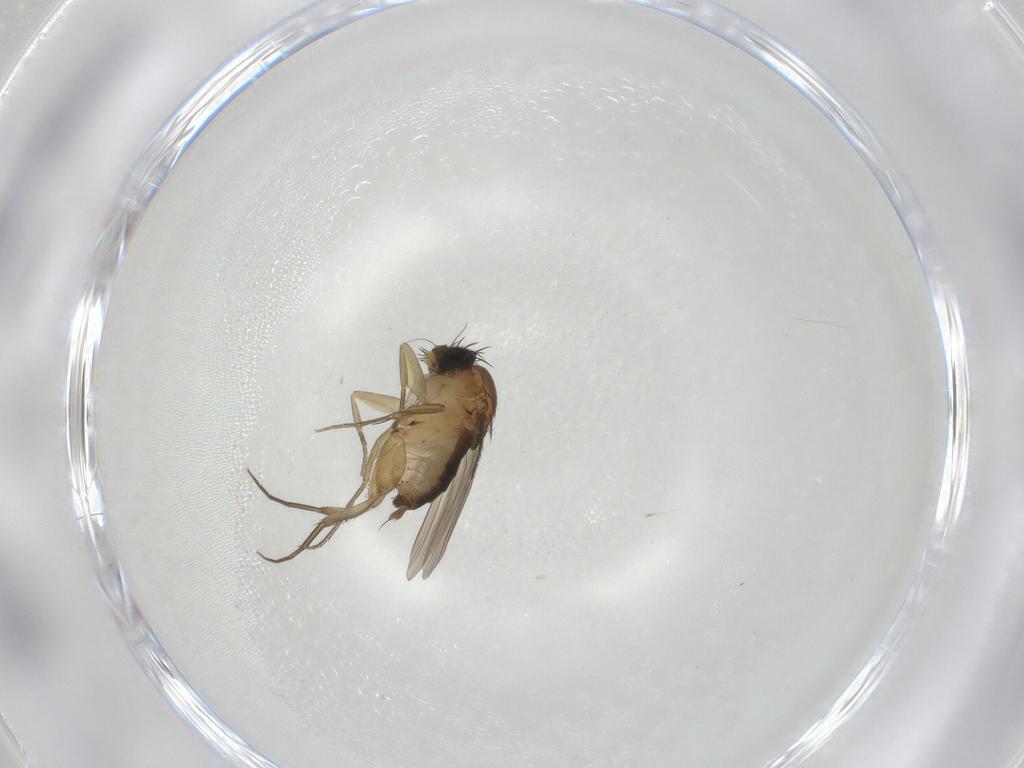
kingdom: Animalia
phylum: Arthropoda
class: Insecta
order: Diptera
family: Phoridae
